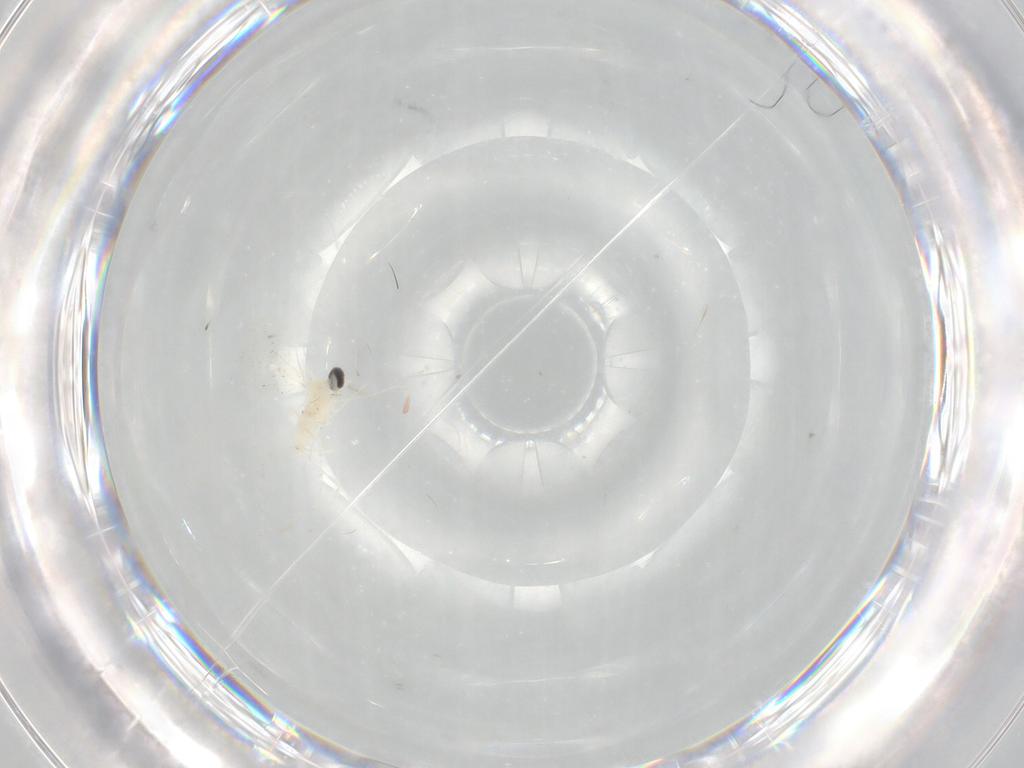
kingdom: Animalia
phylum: Arthropoda
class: Insecta
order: Diptera
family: Cecidomyiidae
